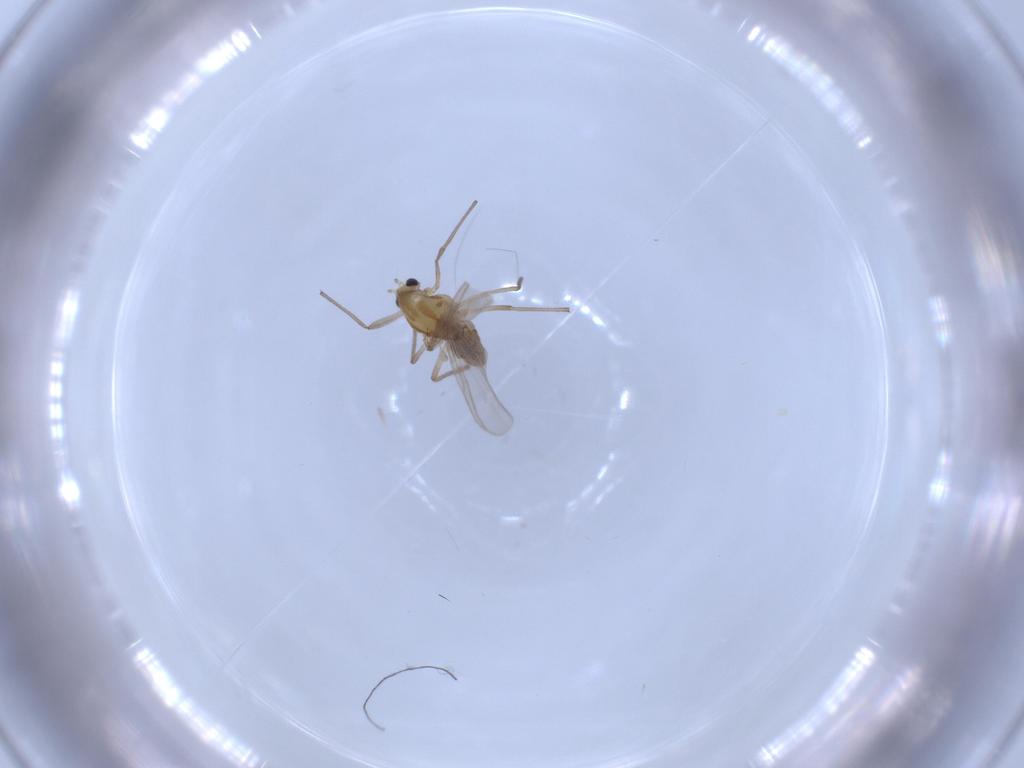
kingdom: Animalia
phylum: Arthropoda
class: Insecta
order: Diptera
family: Chironomidae
